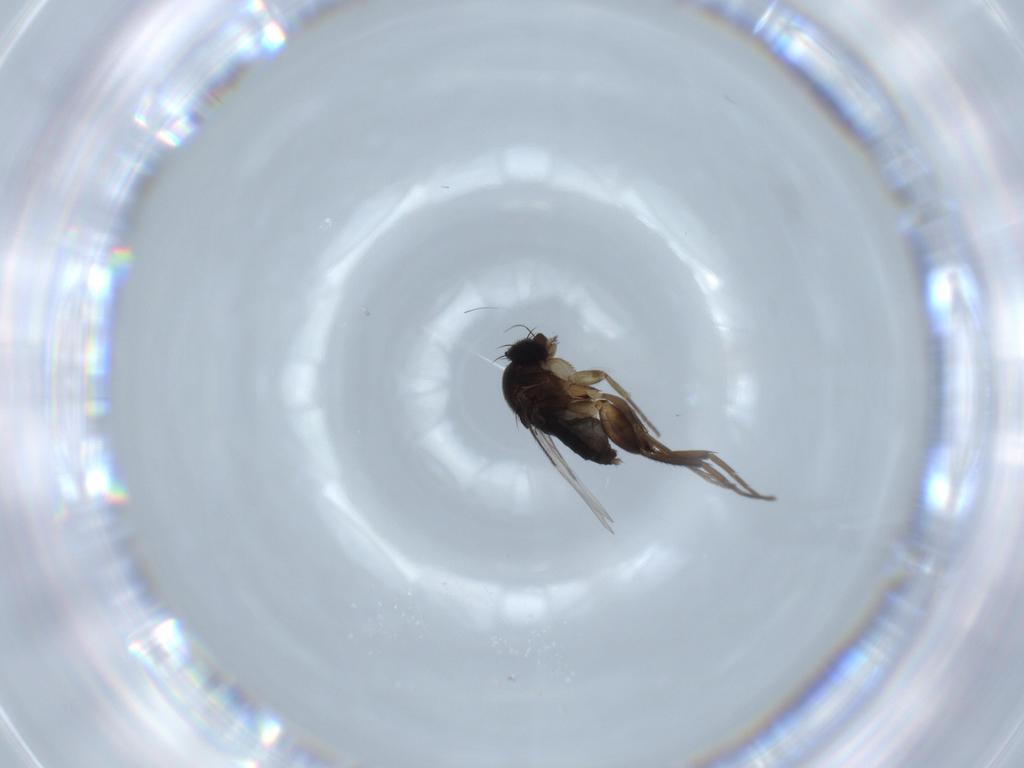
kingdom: Animalia
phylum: Arthropoda
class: Insecta
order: Diptera
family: Phoridae
